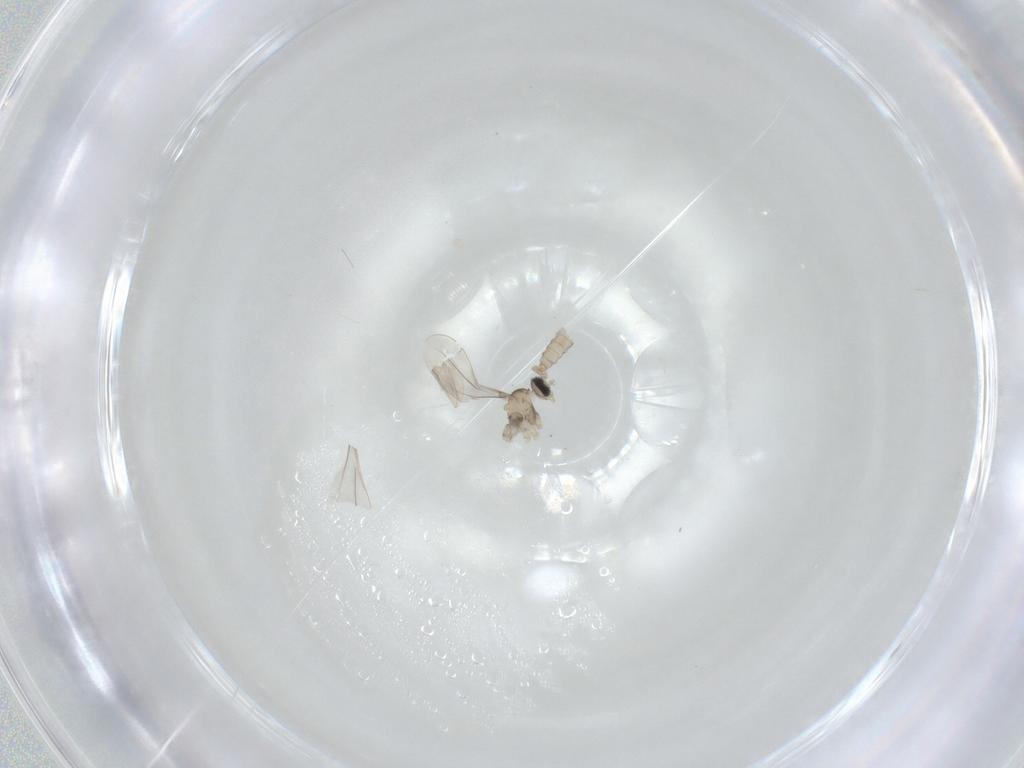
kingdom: Animalia
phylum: Arthropoda
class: Insecta
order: Diptera
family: Cecidomyiidae
